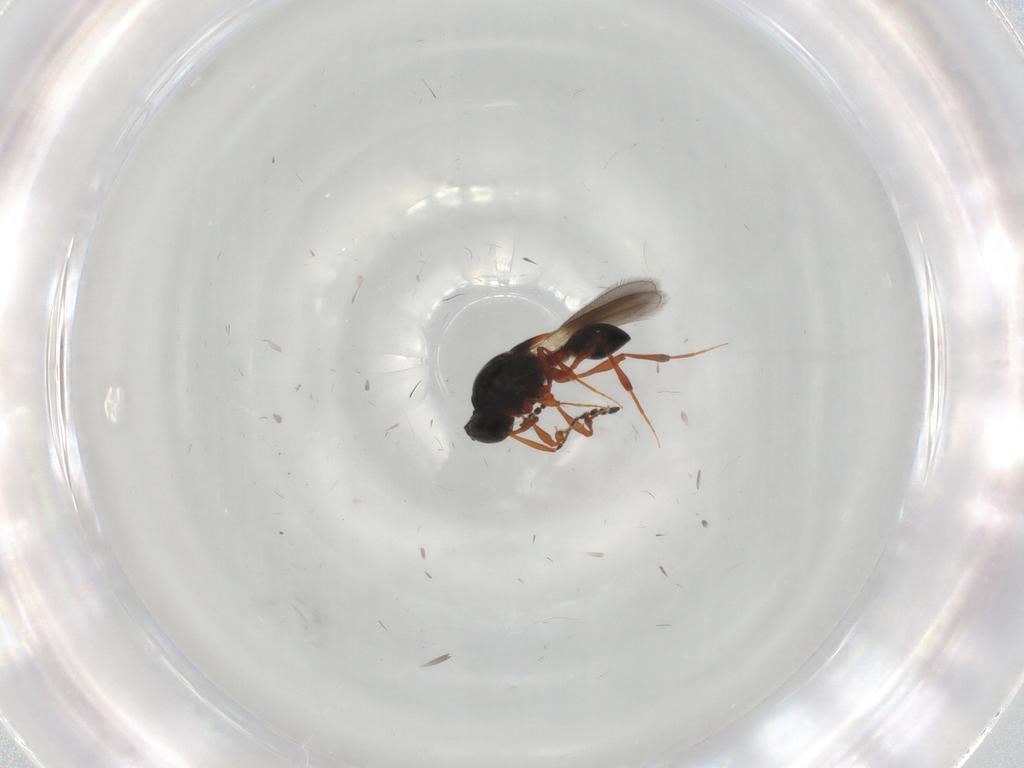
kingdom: Animalia
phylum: Arthropoda
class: Insecta
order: Hymenoptera
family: Platygastridae
